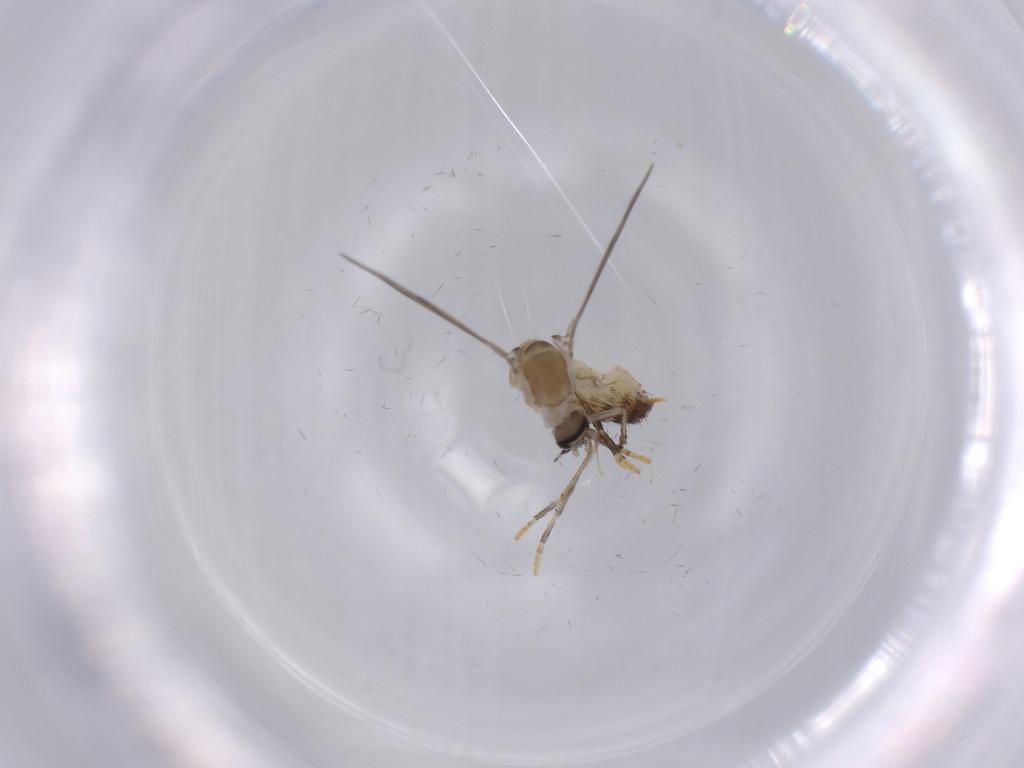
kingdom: Animalia
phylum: Arthropoda
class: Insecta
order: Diptera
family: Psychodidae
